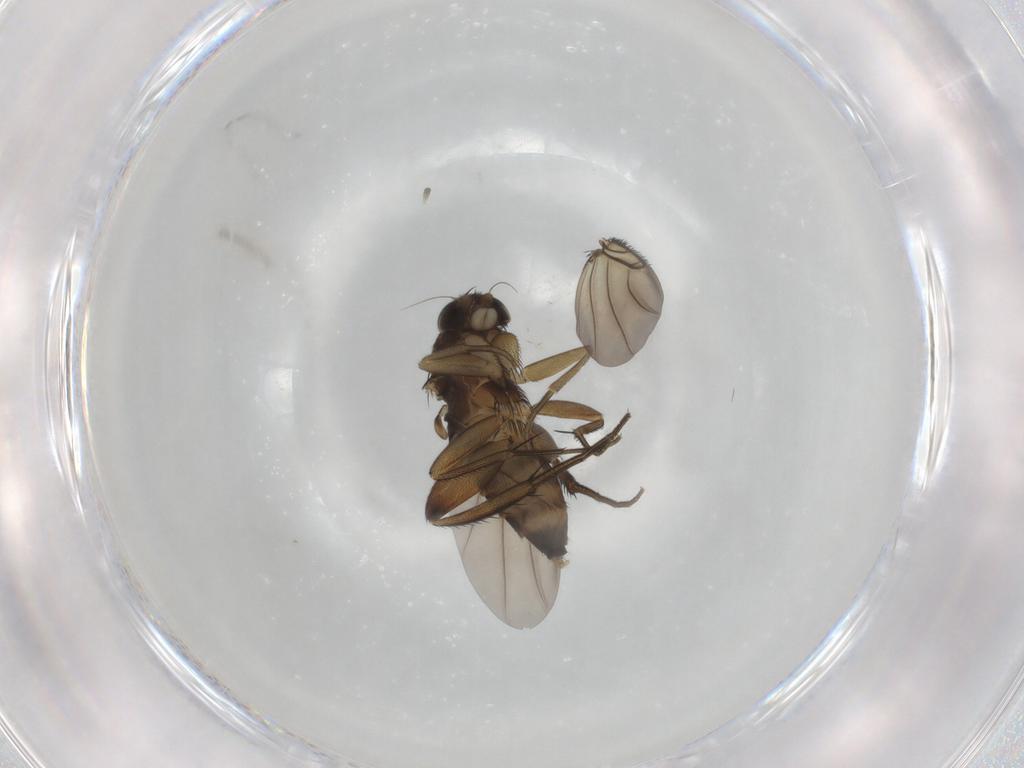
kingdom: Animalia
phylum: Arthropoda
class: Insecta
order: Diptera
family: Phoridae
